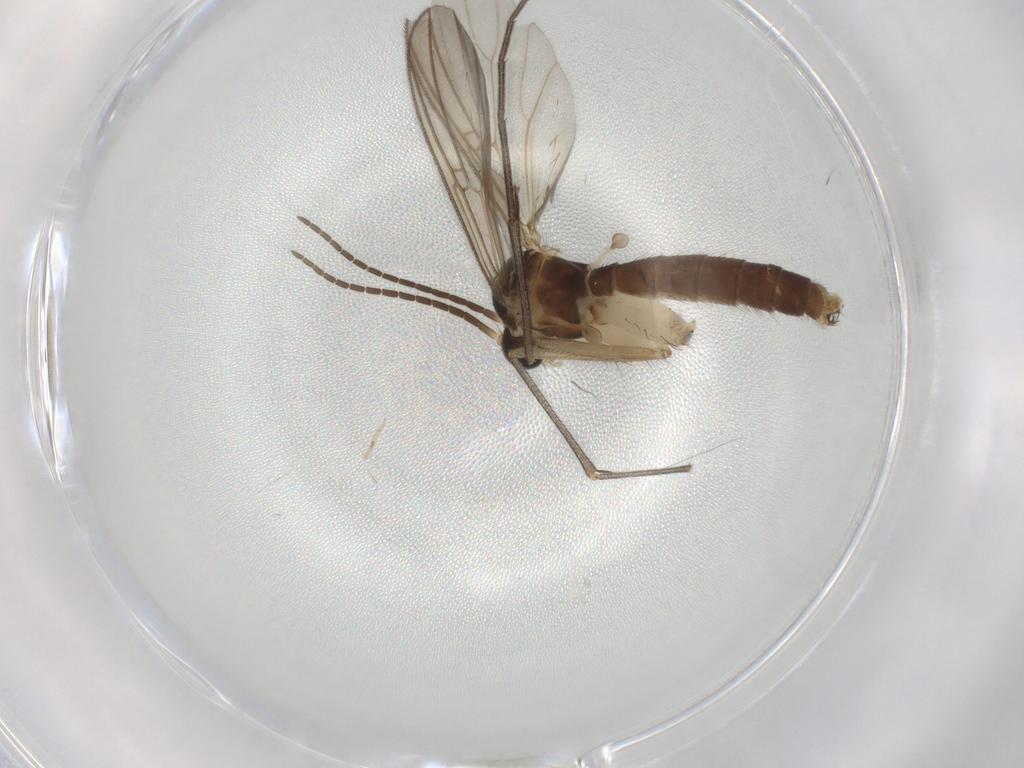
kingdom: Animalia
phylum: Arthropoda
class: Insecta
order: Diptera
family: Mycetophilidae
